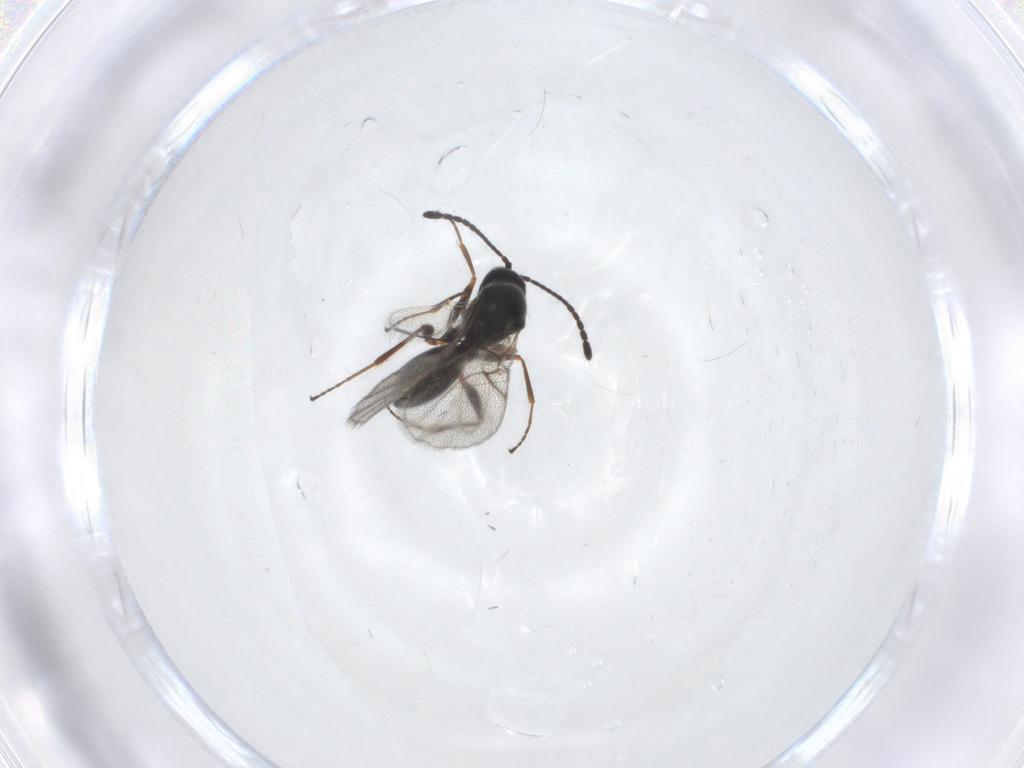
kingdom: Animalia
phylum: Arthropoda
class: Insecta
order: Hymenoptera
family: Figitidae
